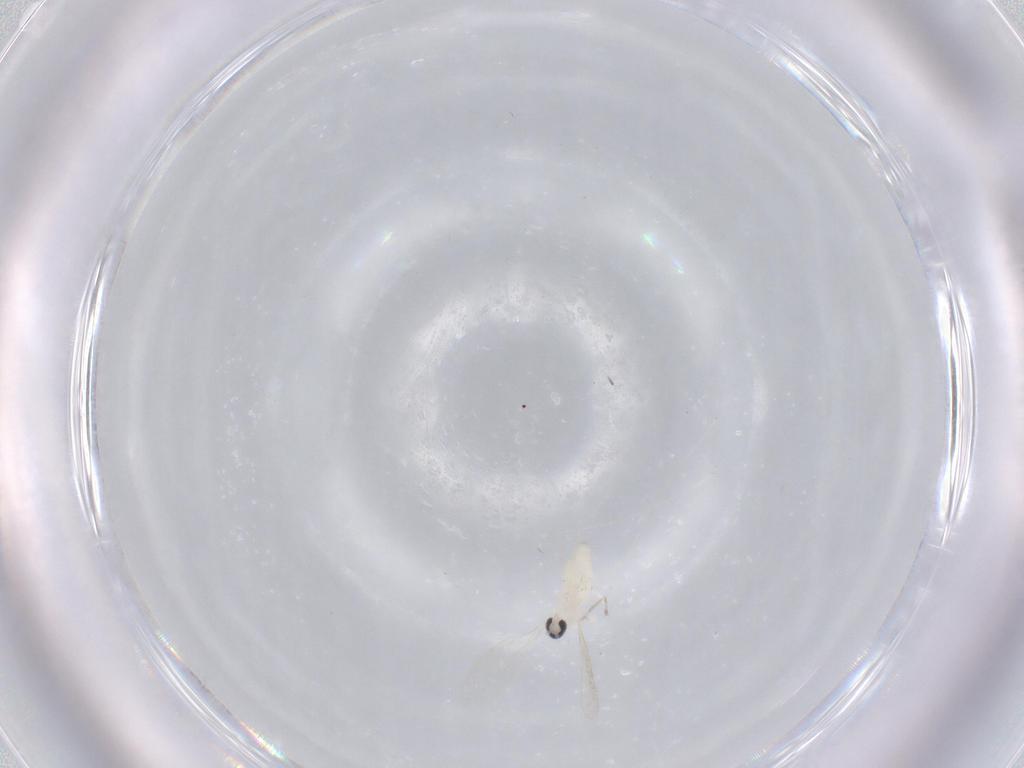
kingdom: Animalia
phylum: Arthropoda
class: Insecta
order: Diptera
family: Cecidomyiidae
